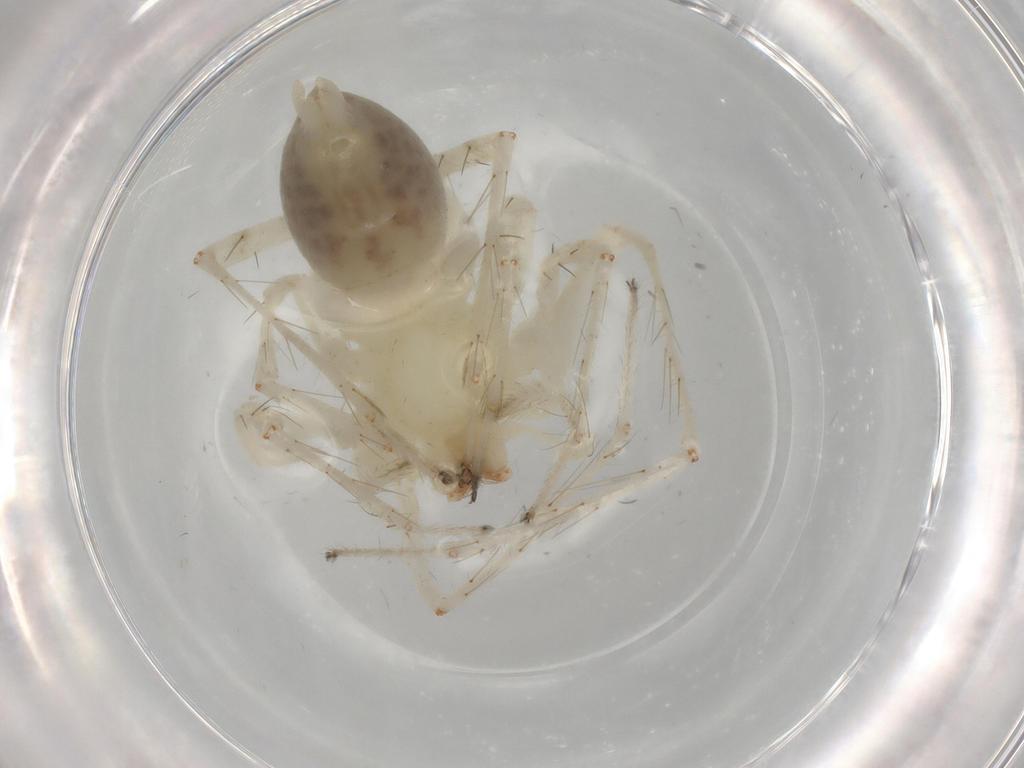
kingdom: Animalia
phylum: Arthropoda
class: Arachnida
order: Araneae
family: Anyphaenidae
